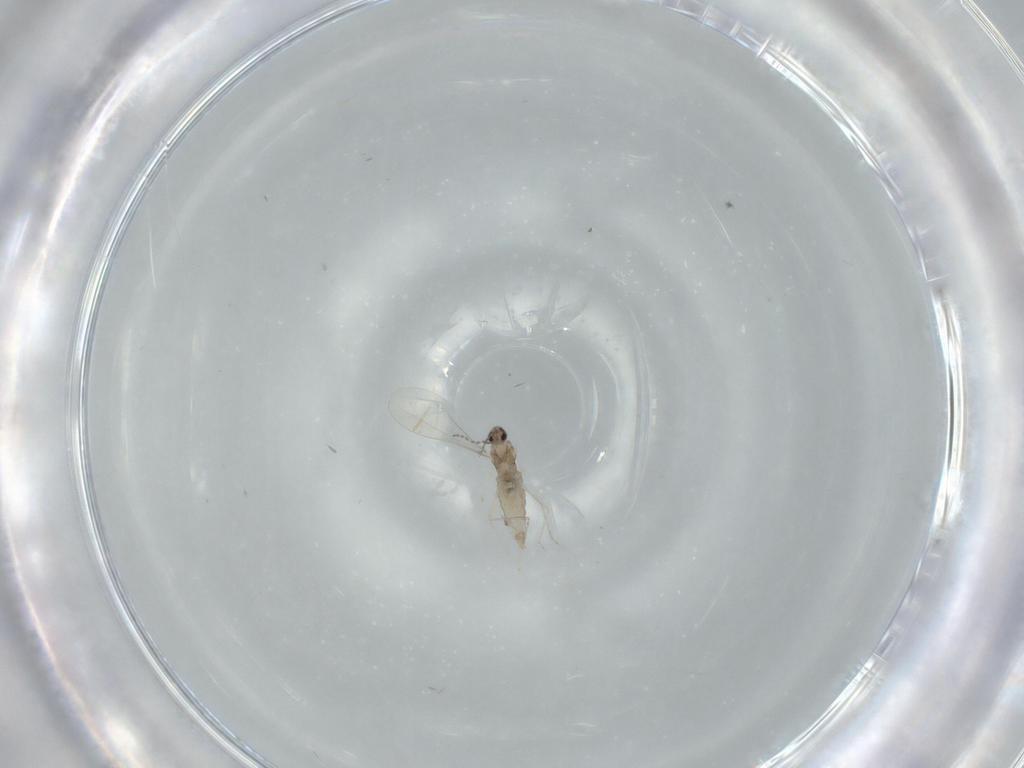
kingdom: Animalia
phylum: Arthropoda
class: Insecta
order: Diptera
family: Cecidomyiidae
